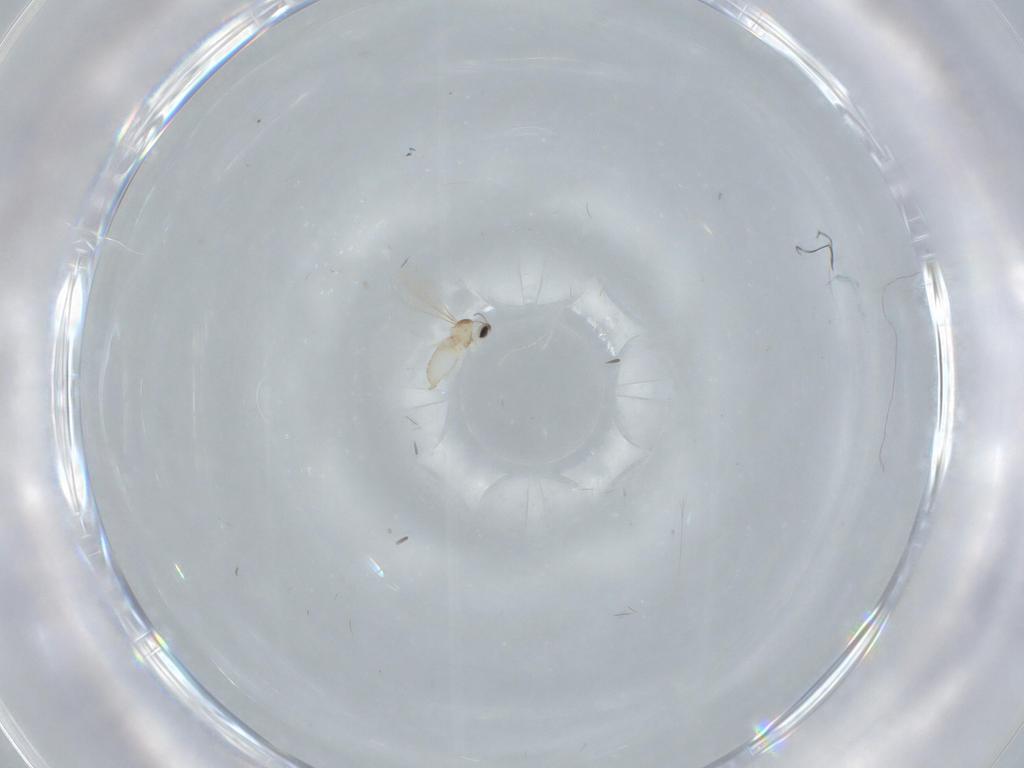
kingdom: Animalia
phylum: Arthropoda
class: Insecta
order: Diptera
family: Cecidomyiidae
